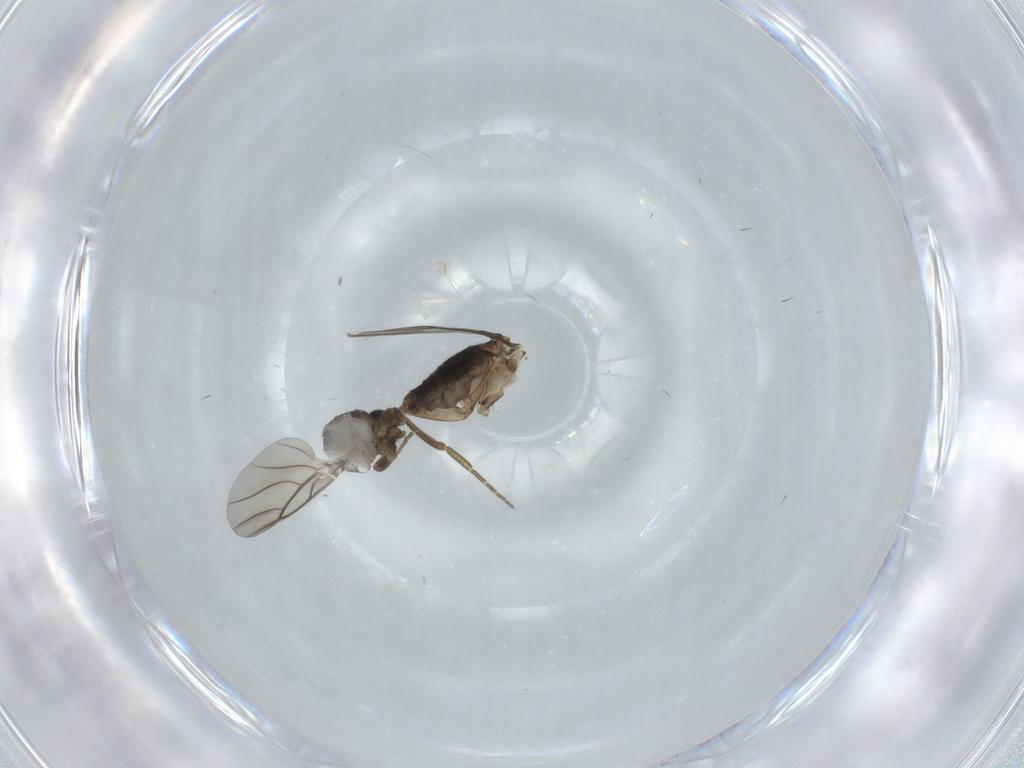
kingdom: Animalia
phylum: Arthropoda
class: Insecta
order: Diptera
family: Phoridae
